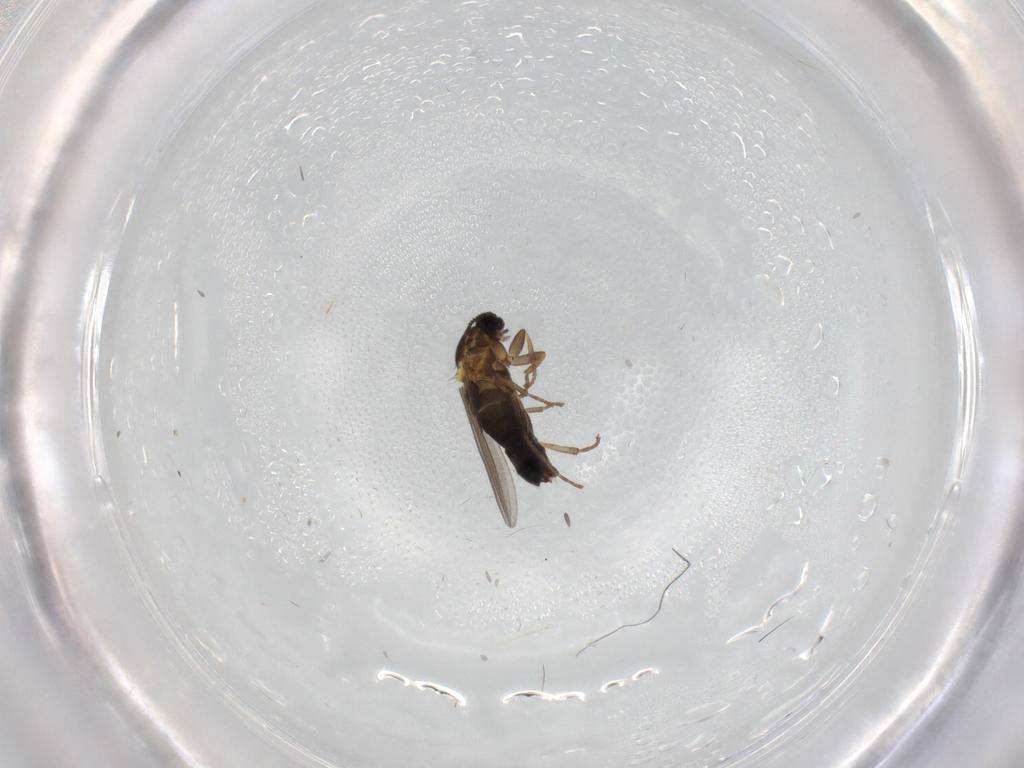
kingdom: Animalia
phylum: Arthropoda
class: Insecta
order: Diptera
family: Scatopsidae
